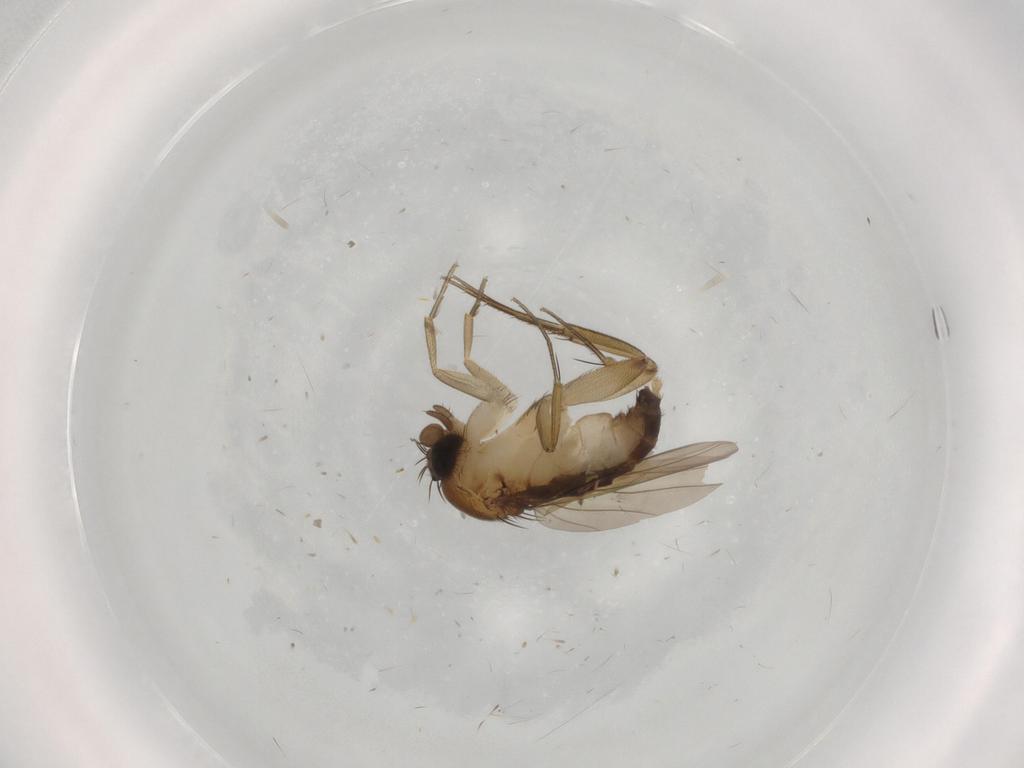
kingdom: Animalia
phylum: Arthropoda
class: Insecta
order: Diptera
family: Phoridae
